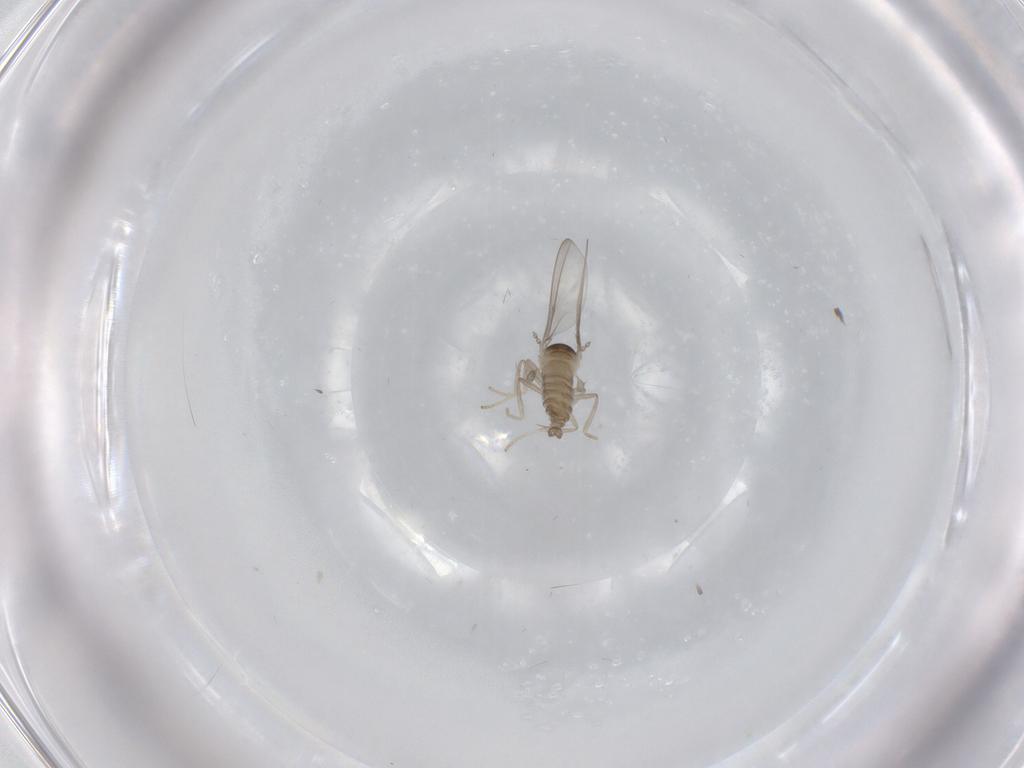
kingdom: Animalia
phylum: Arthropoda
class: Insecta
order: Diptera
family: Cecidomyiidae
